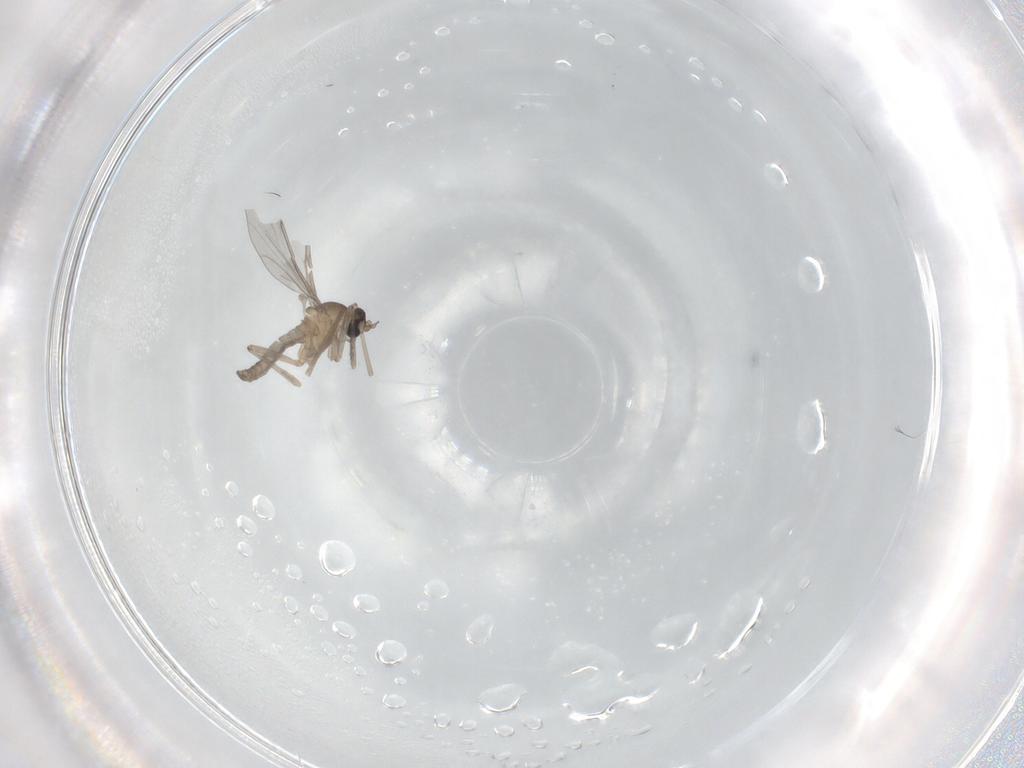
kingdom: Animalia
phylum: Arthropoda
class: Insecta
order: Diptera
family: Cecidomyiidae
